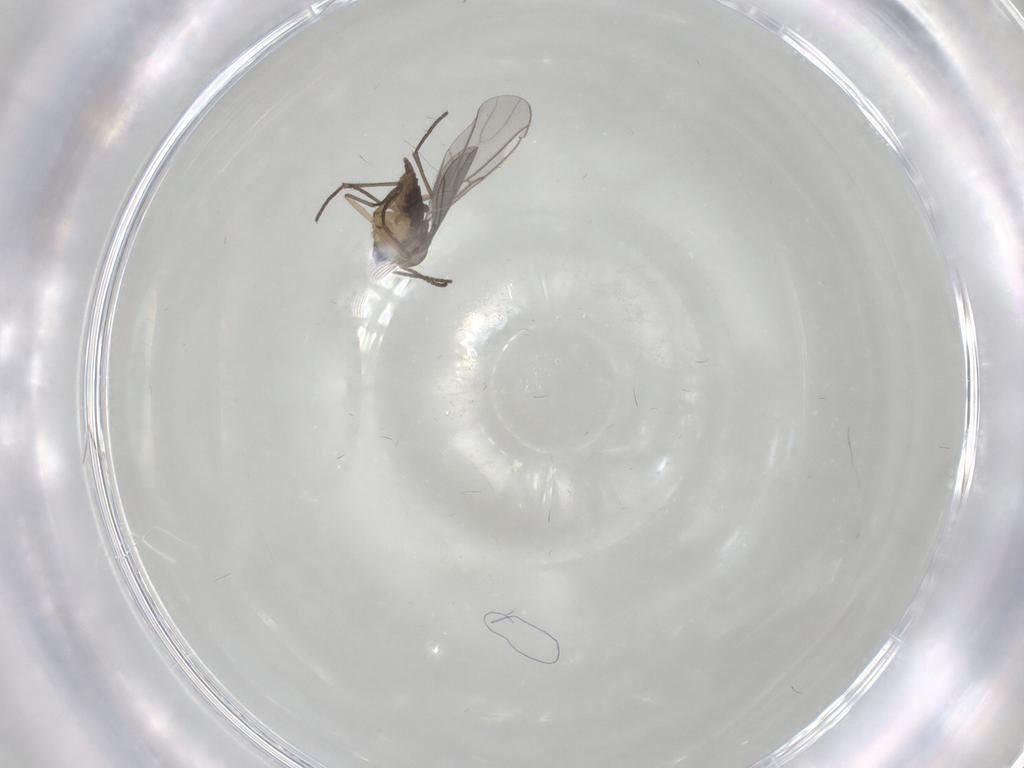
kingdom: Animalia
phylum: Arthropoda
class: Insecta
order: Diptera
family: Sciaridae
